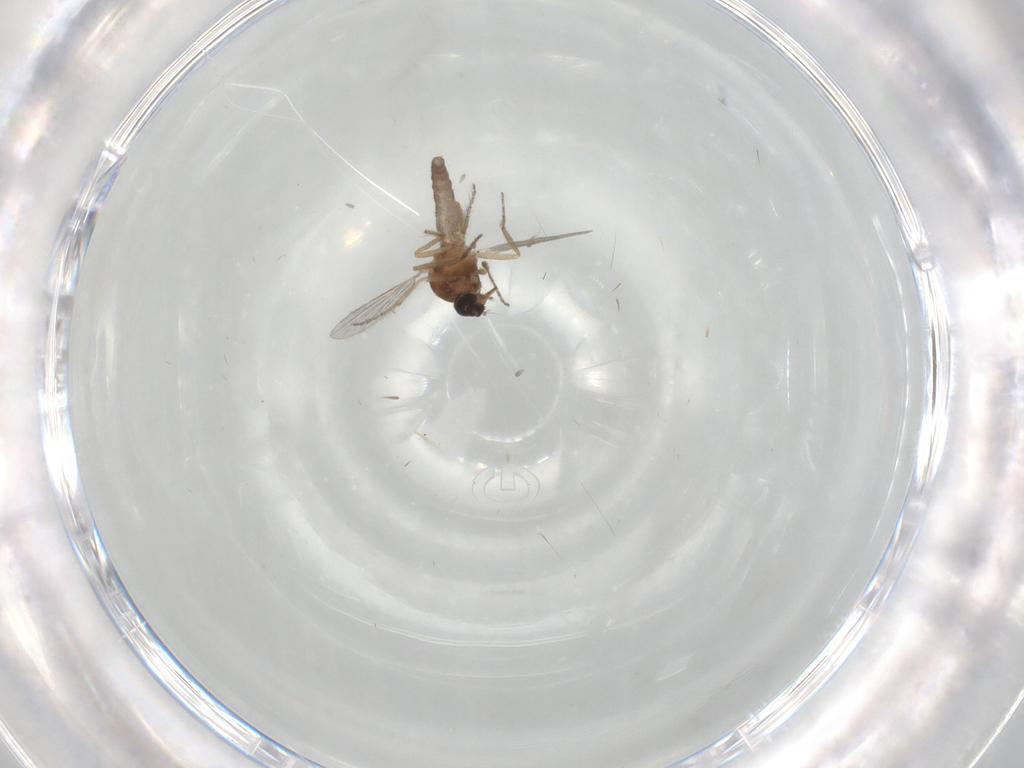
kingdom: Animalia
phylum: Arthropoda
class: Insecta
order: Diptera
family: Ceratopogonidae
